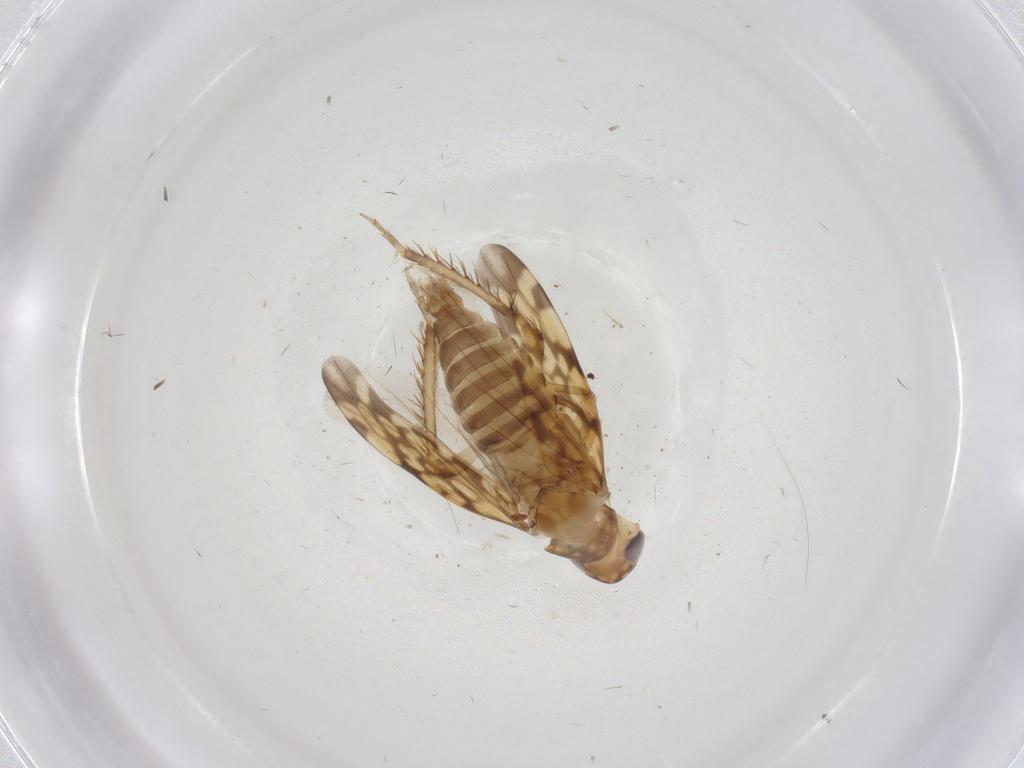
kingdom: Animalia
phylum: Arthropoda
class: Insecta
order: Hemiptera
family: Cicadellidae
